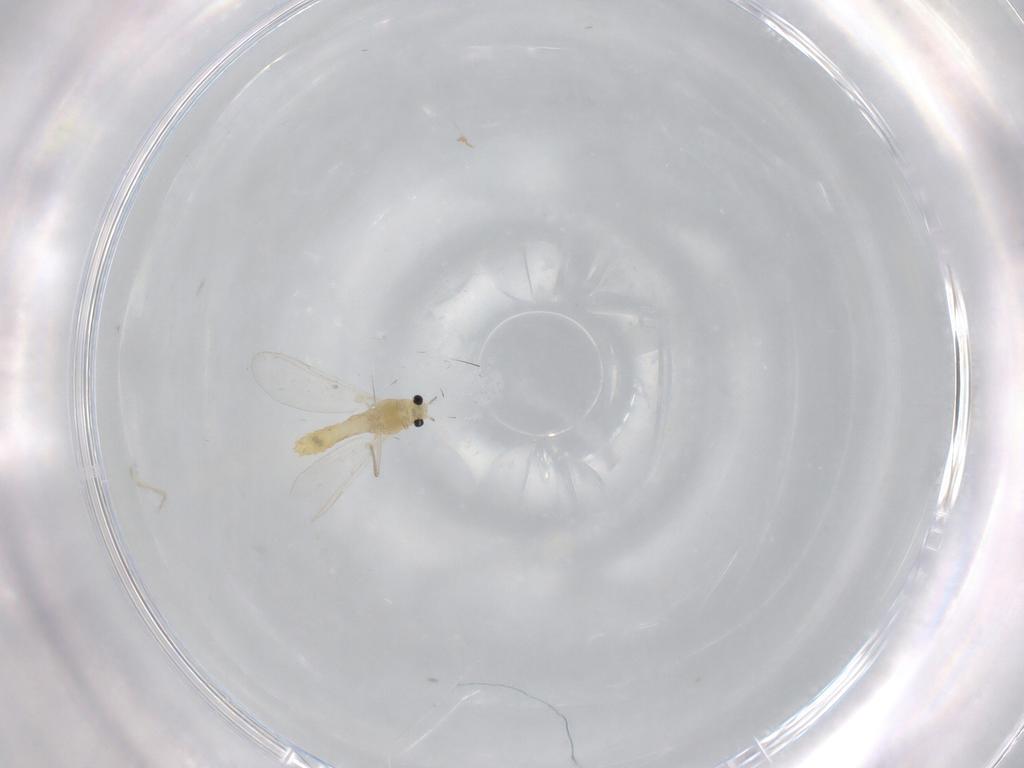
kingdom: Animalia
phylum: Arthropoda
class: Insecta
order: Diptera
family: Chironomidae
